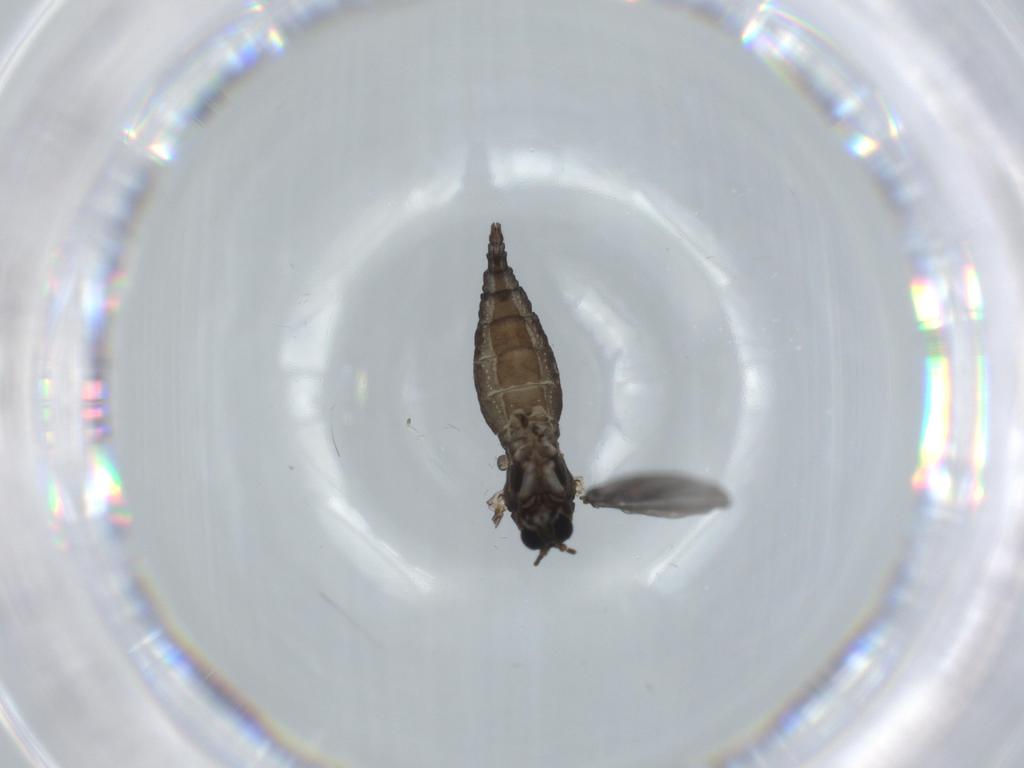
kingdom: Animalia
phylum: Arthropoda
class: Insecta
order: Diptera
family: Sciaridae
